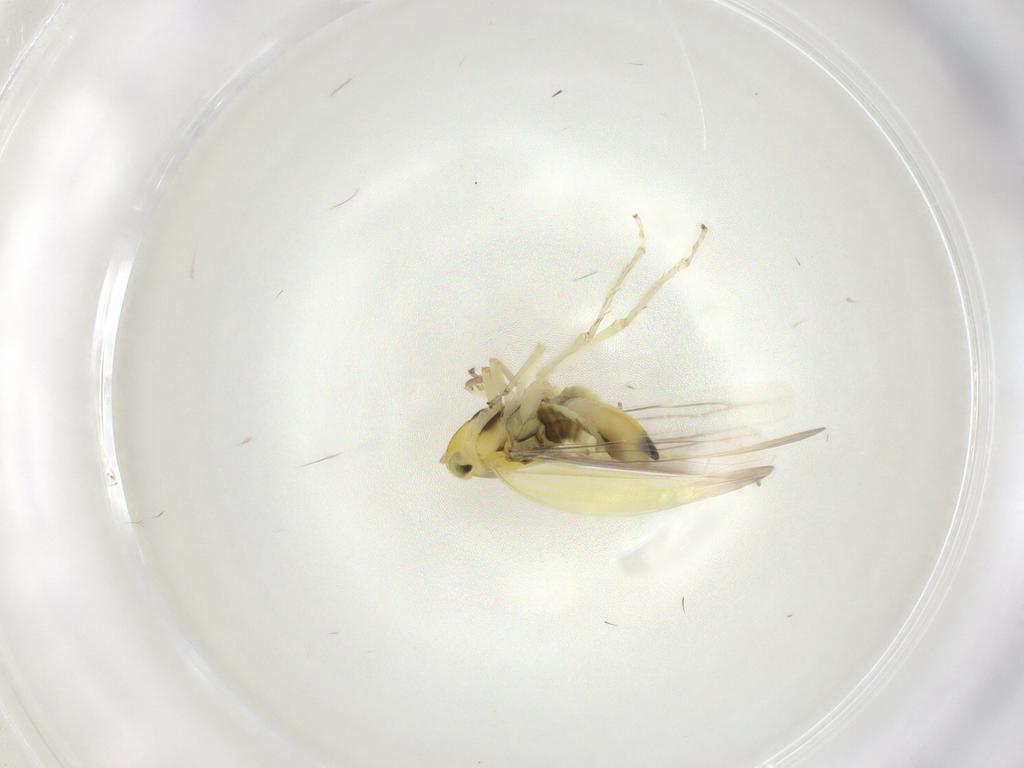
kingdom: Animalia
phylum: Arthropoda
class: Insecta
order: Hemiptera
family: Cicadellidae
